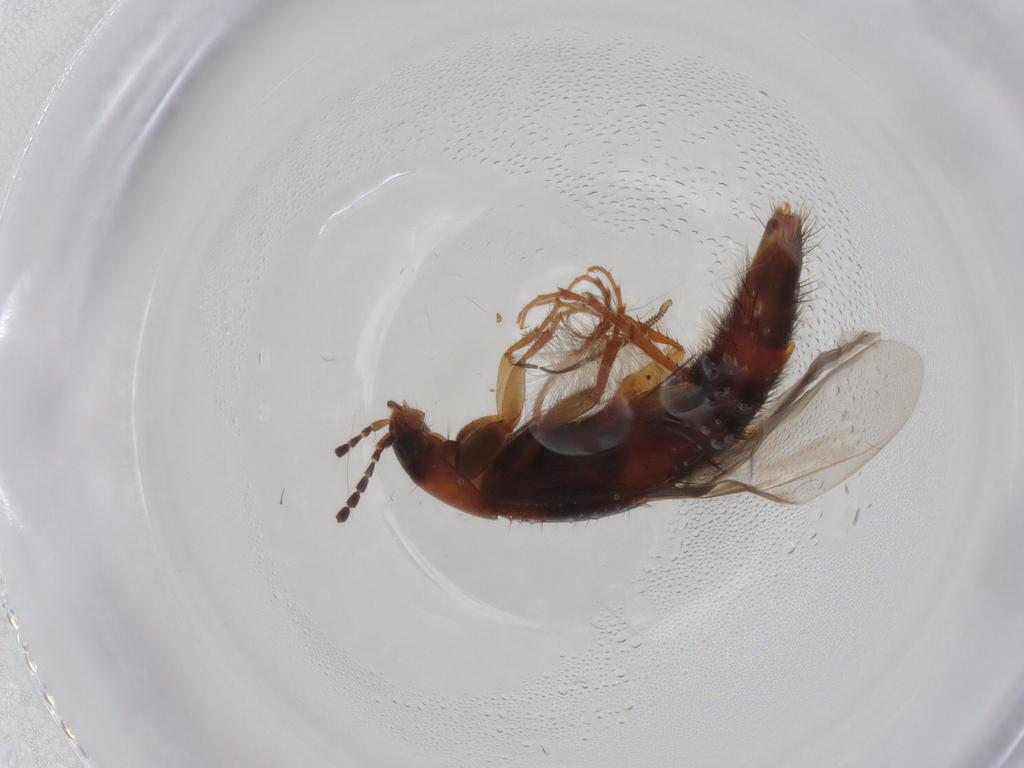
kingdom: Animalia
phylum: Arthropoda
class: Insecta
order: Coleoptera
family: Staphylinidae
